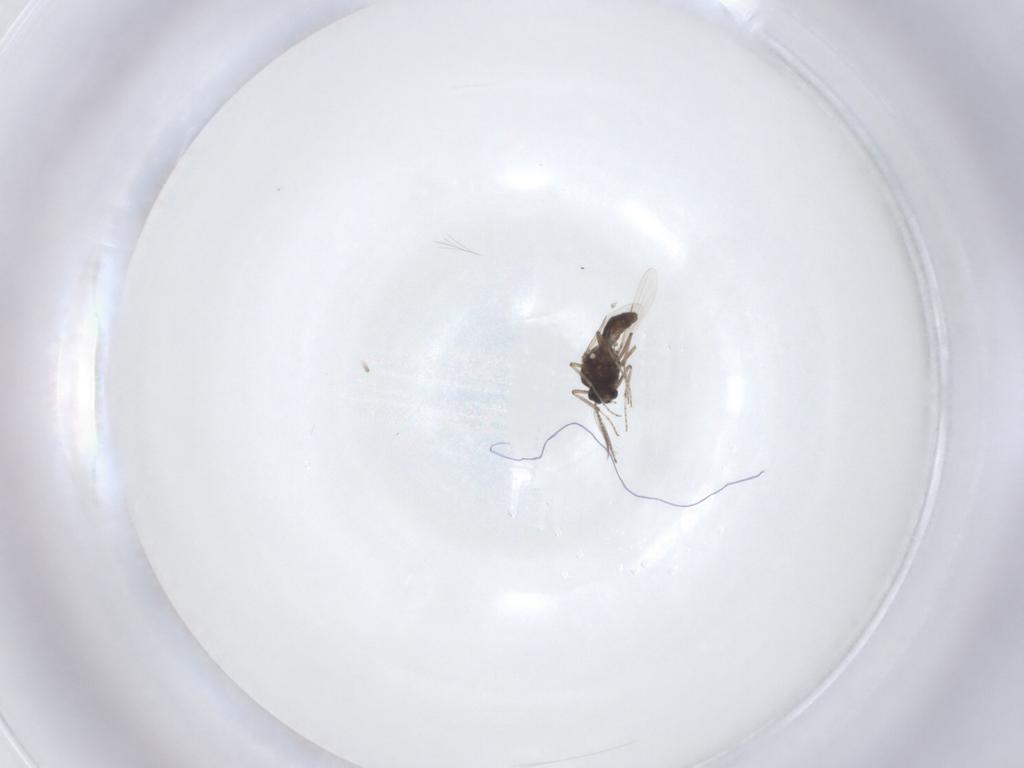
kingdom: Animalia
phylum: Arthropoda
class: Insecta
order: Diptera
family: Ceratopogonidae
